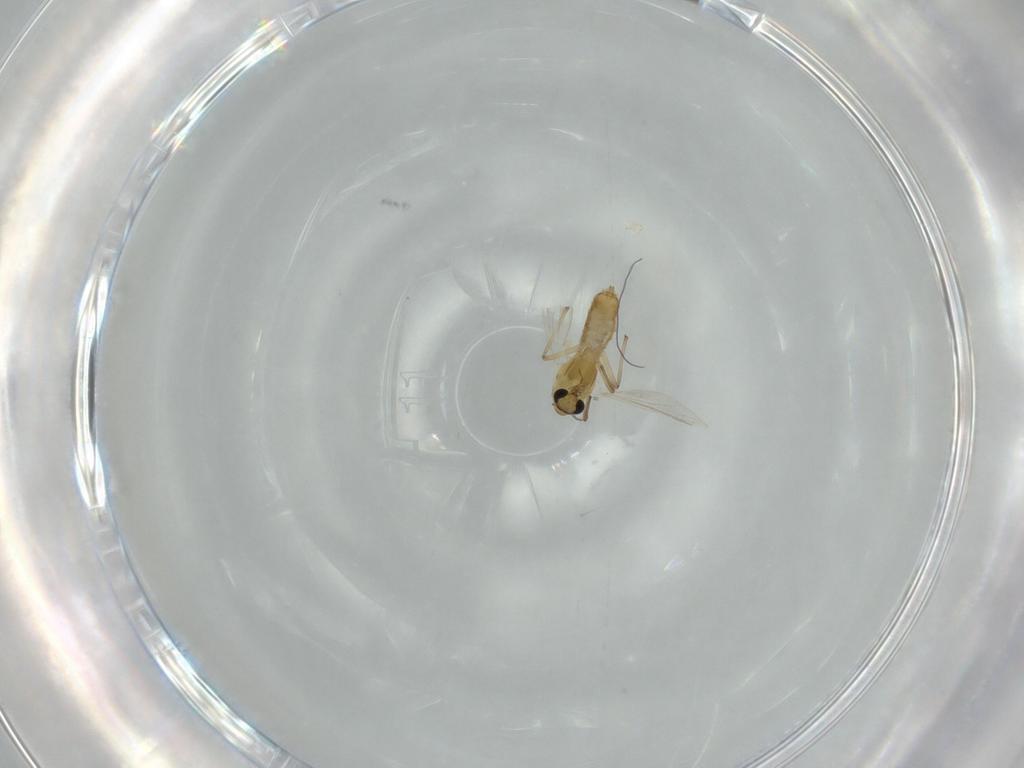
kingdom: Animalia
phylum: Arthropoda
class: Insecta
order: Diptera
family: Chironomidae
